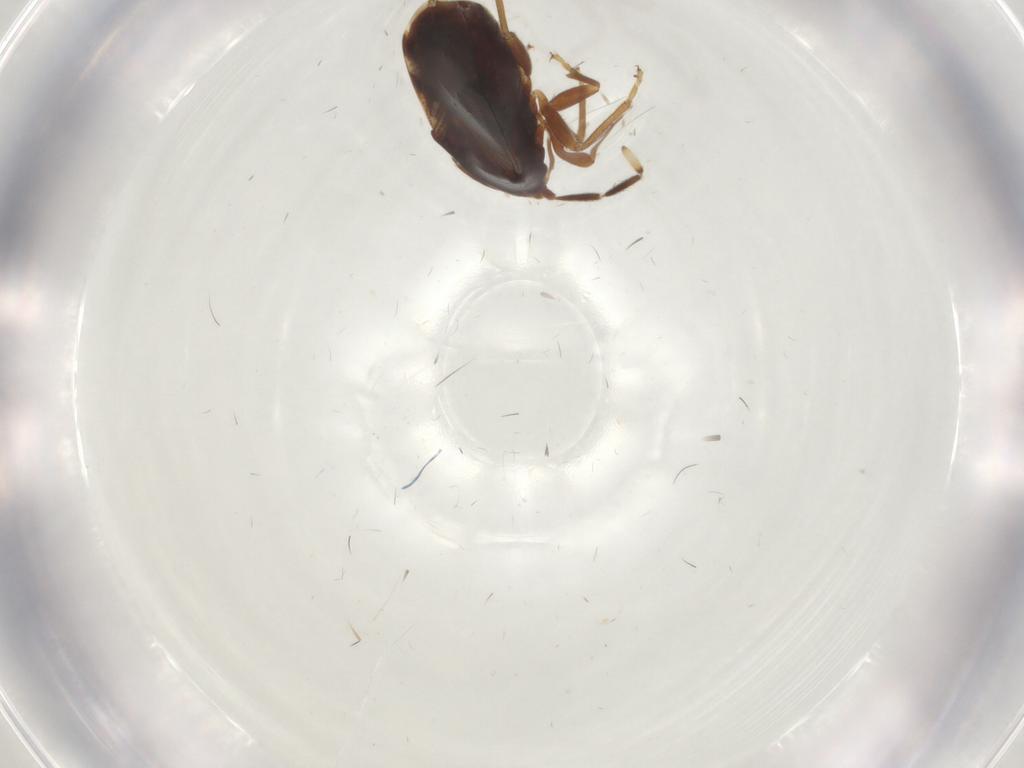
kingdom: Animalia
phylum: Arthropoda
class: Insecta
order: Hemiptera
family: Rhyparochromidae
